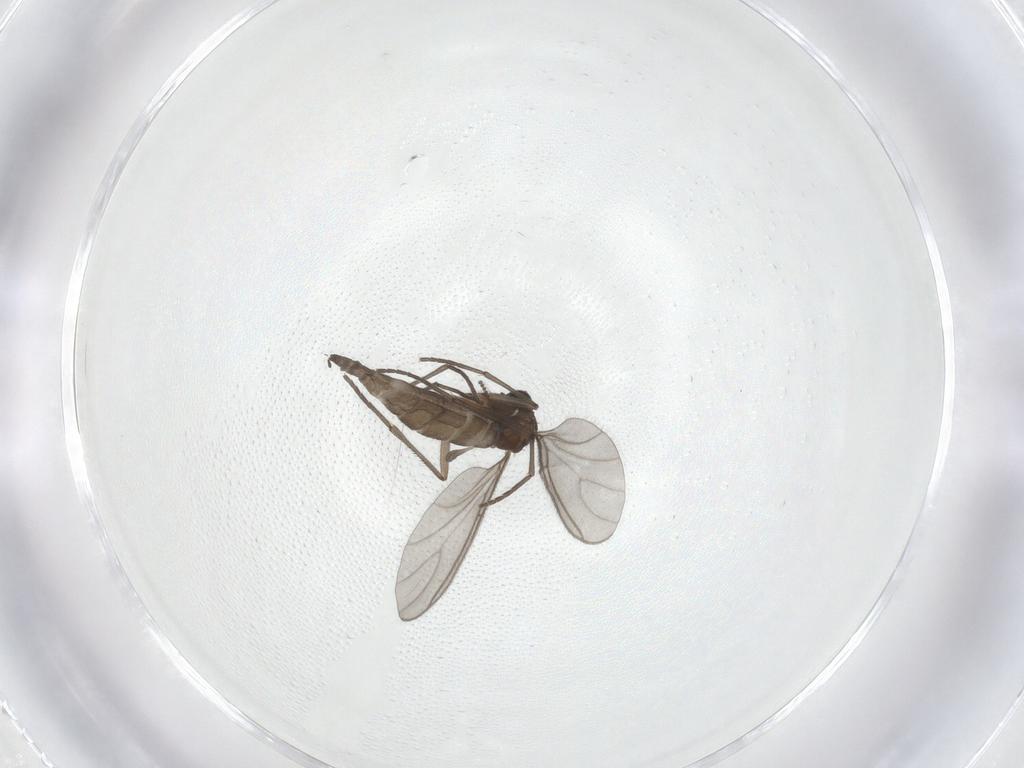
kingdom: Animalia
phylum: Arthropoda
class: Insecta
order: Diptera
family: Ceratopogonidae
